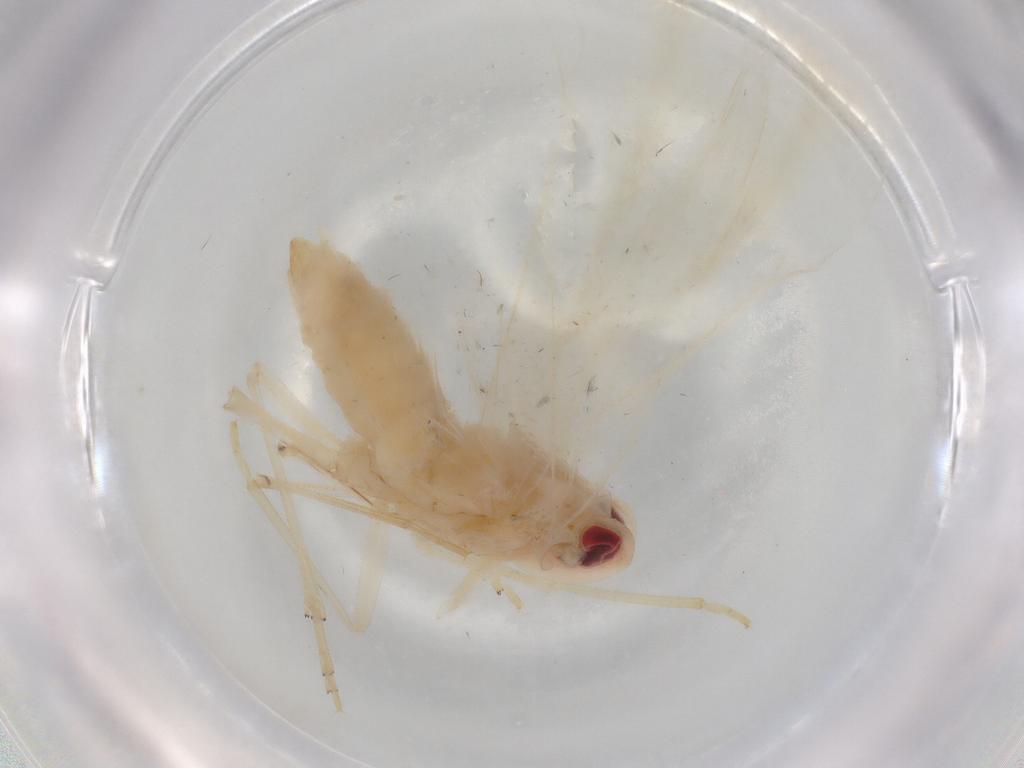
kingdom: Animalia
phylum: Arthropoda
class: Insecta
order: Hemiptera
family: Derbidae
